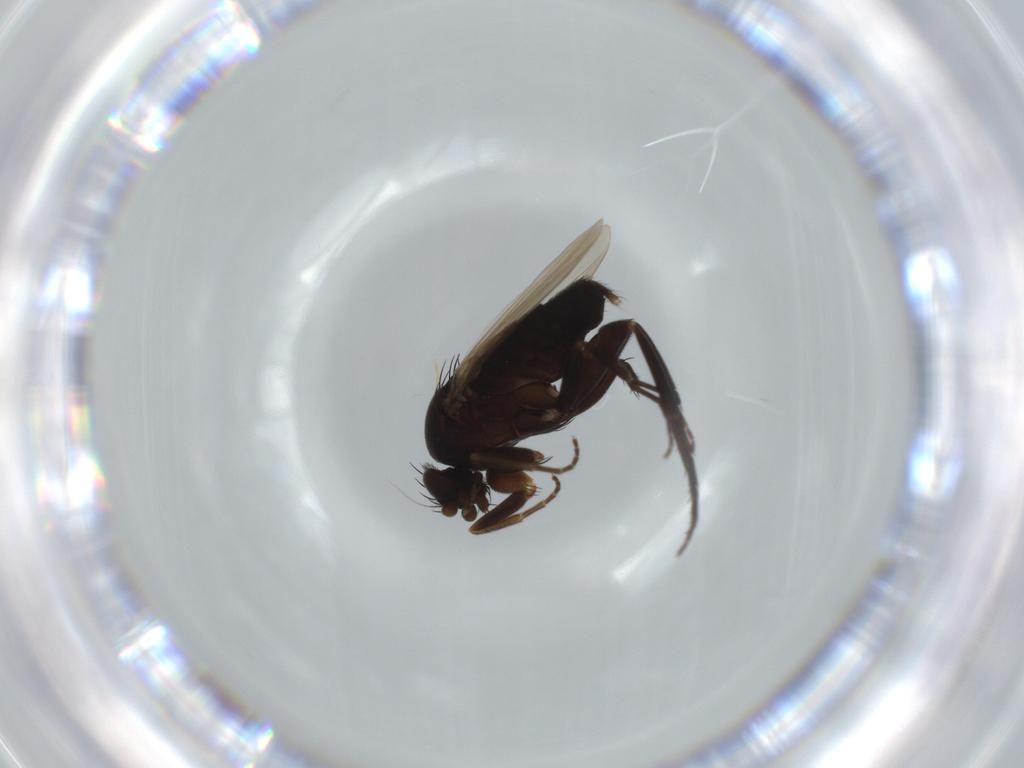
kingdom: Animalia
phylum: Arthropoda
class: Insecta
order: Diptera
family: Phoridae
